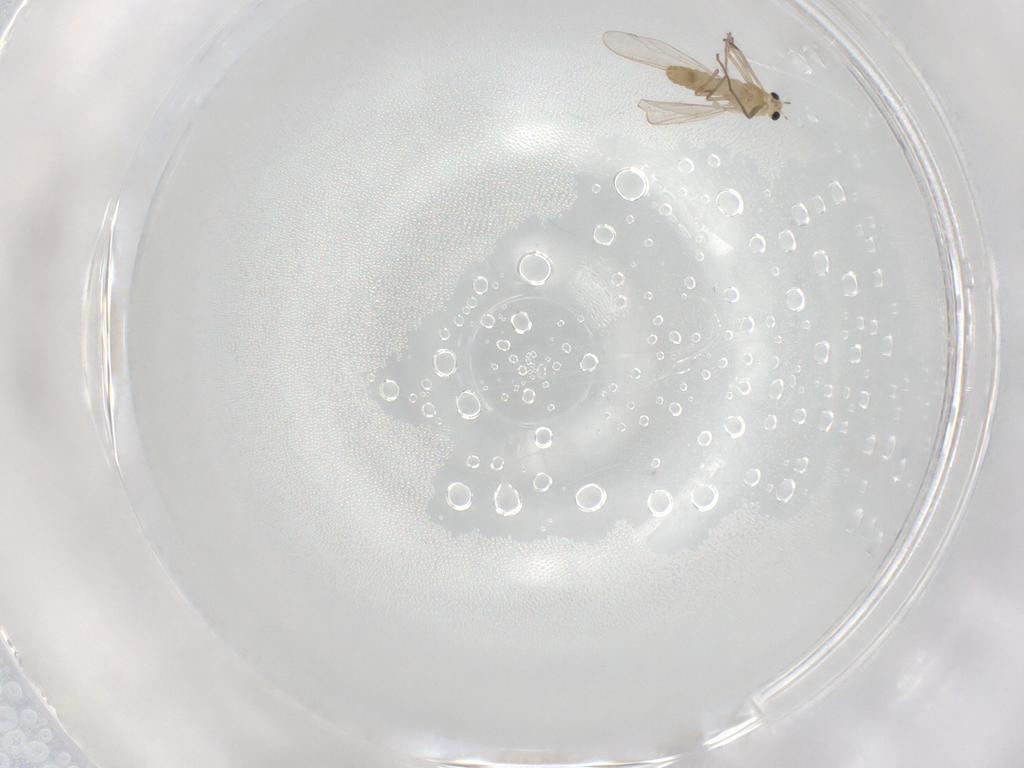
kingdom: Animalia
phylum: Arthropoda
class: Insecta
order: Diptera
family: Chironomidae
